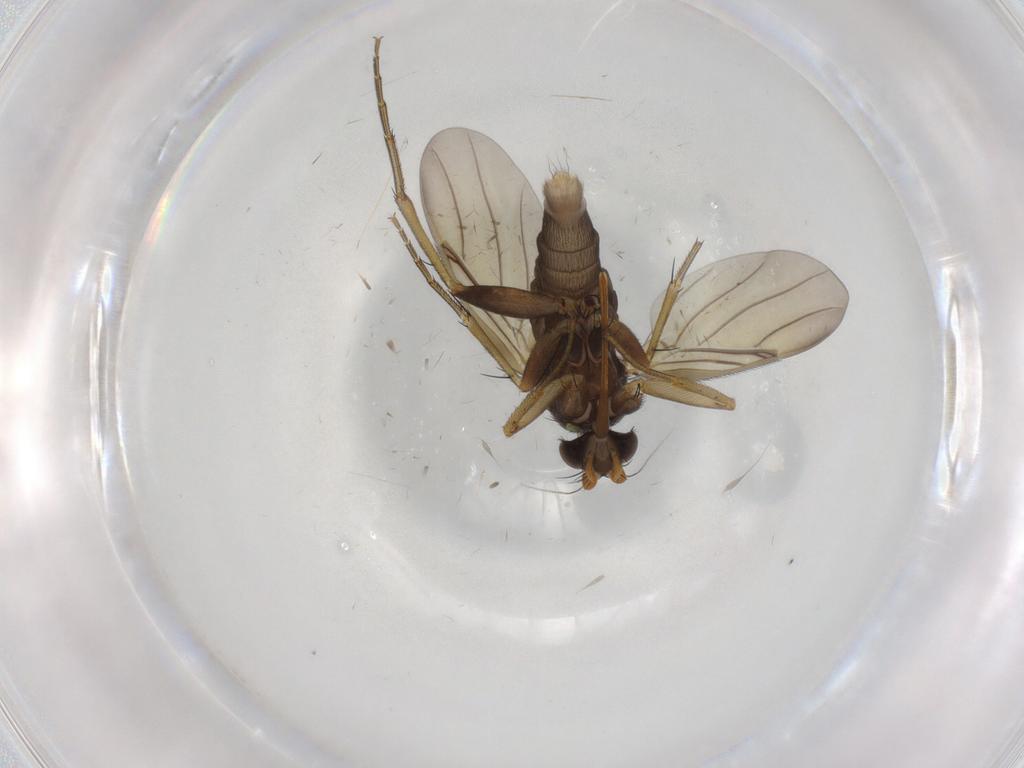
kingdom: Animalia
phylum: Arthropoda
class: Insecta
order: Diptera
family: Phoridae
